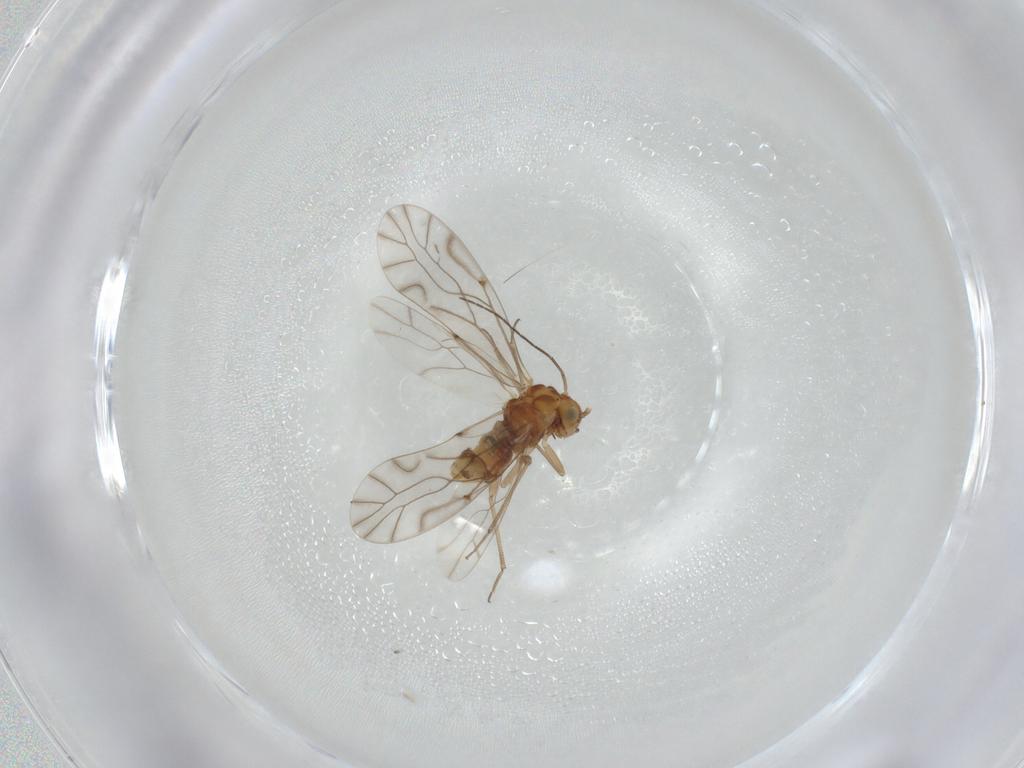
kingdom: Animalia
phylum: Arthropoda
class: Insecta
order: Psocodea
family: Lachesillidae
